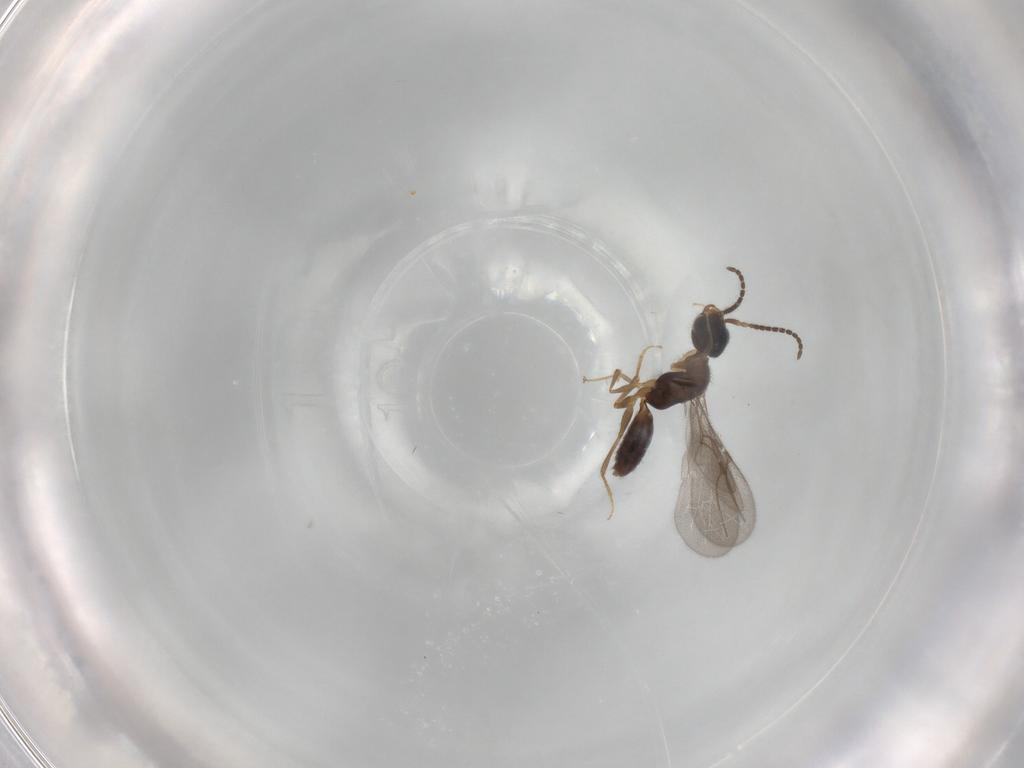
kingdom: Animalia
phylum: Arthropoda
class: Insecta
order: Hymenoptera
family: Bethylidae
